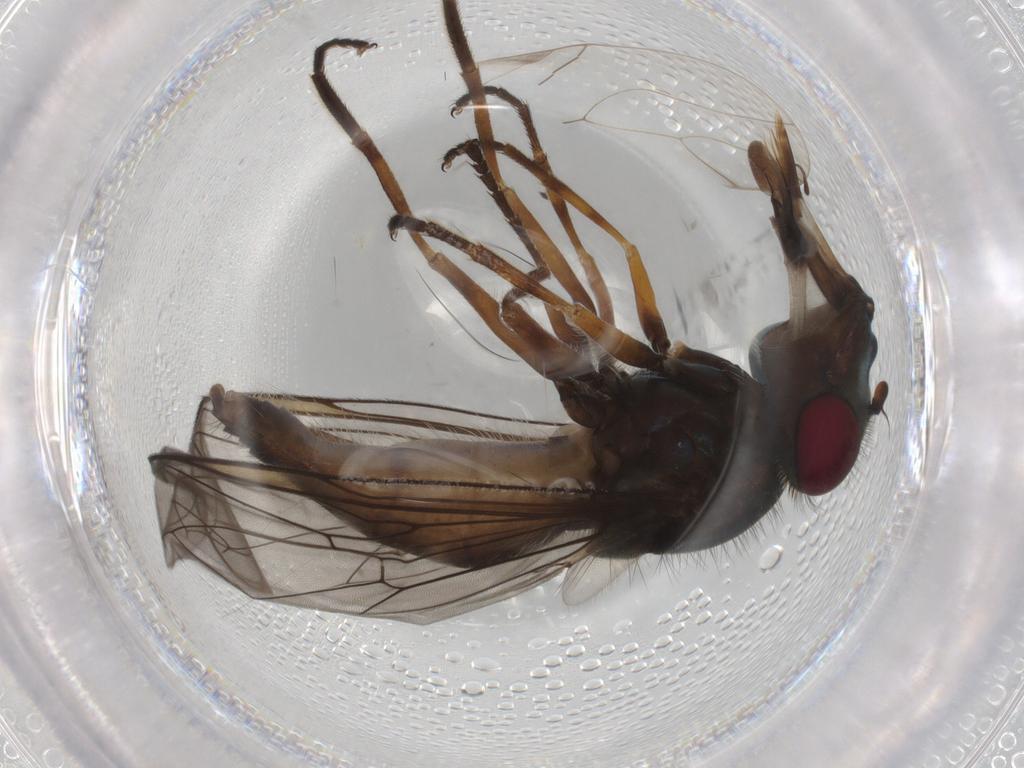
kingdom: Animalia
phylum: Arthropoda
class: Insecta
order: Diptera
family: Syrphidae
